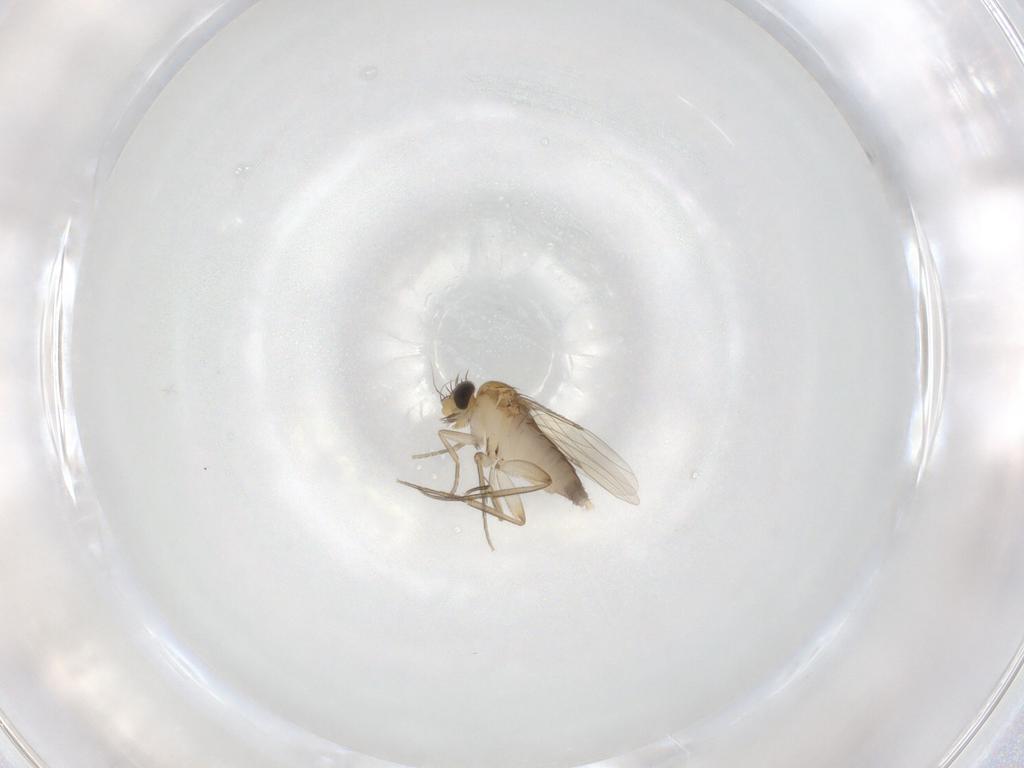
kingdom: Animalia
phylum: Arthropoda
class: Insecta
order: Diptera
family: Phoridae
